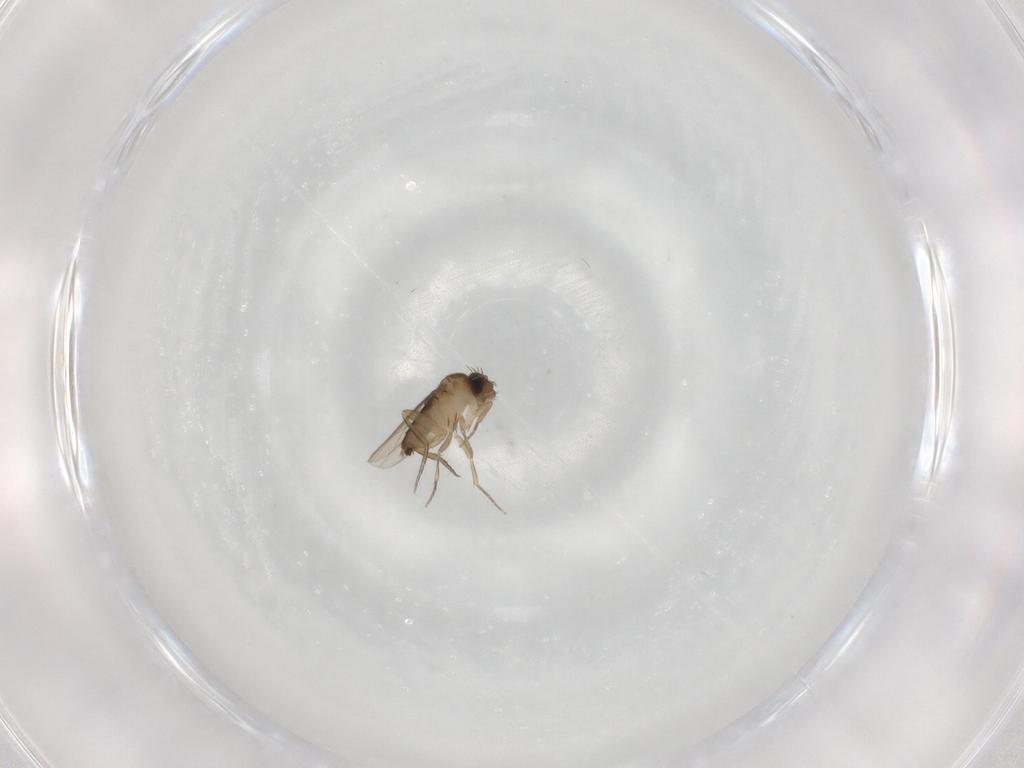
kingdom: Animalia
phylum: Arthropoda
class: Insecta
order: Diptera
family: Phoridae
